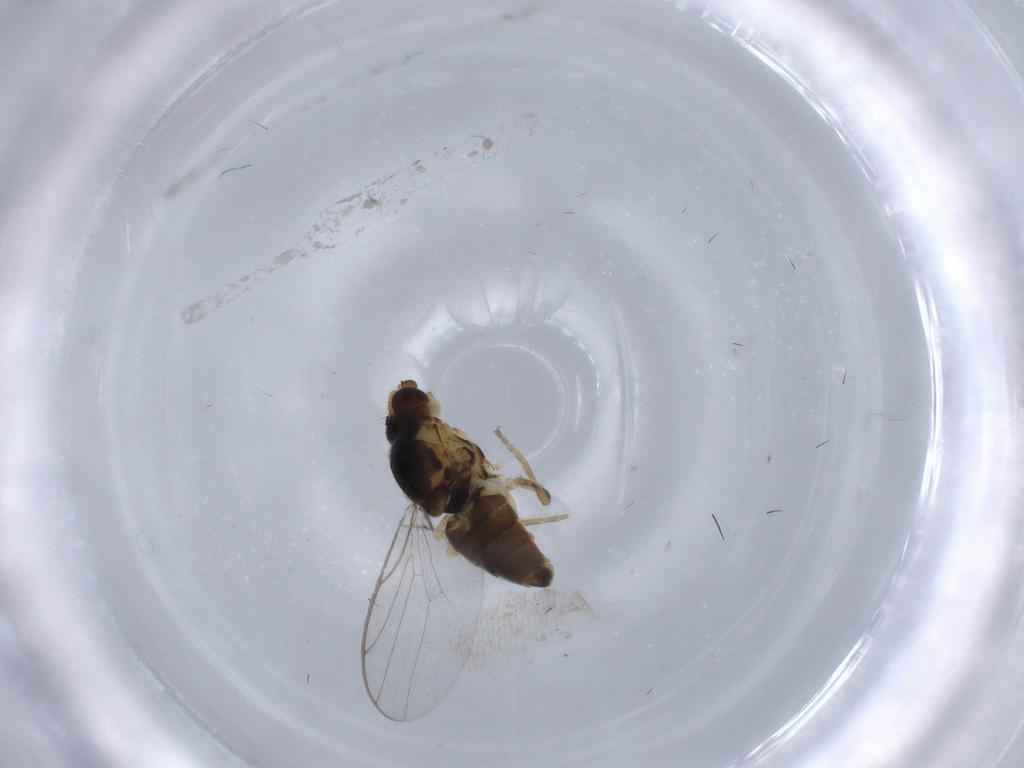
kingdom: Animalia
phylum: Arthropoda
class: Insecta
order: Diptera
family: Chloropidae
